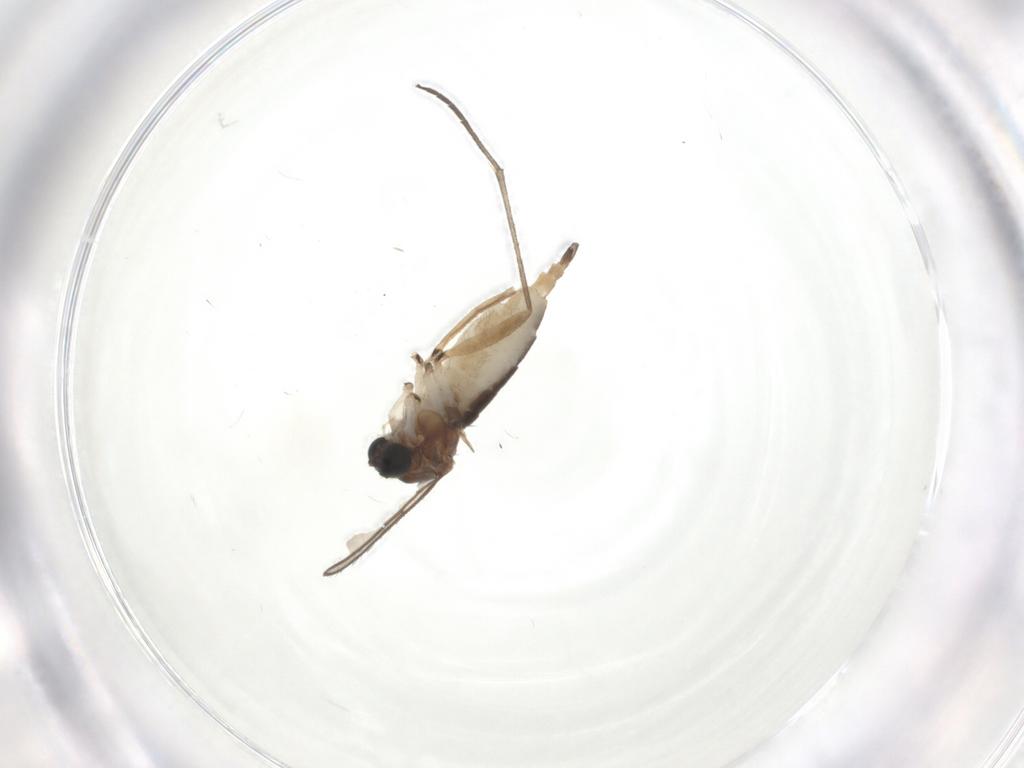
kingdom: Animalia
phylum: Arthropoda
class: Insecta
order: Diptera
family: Sciaridae
